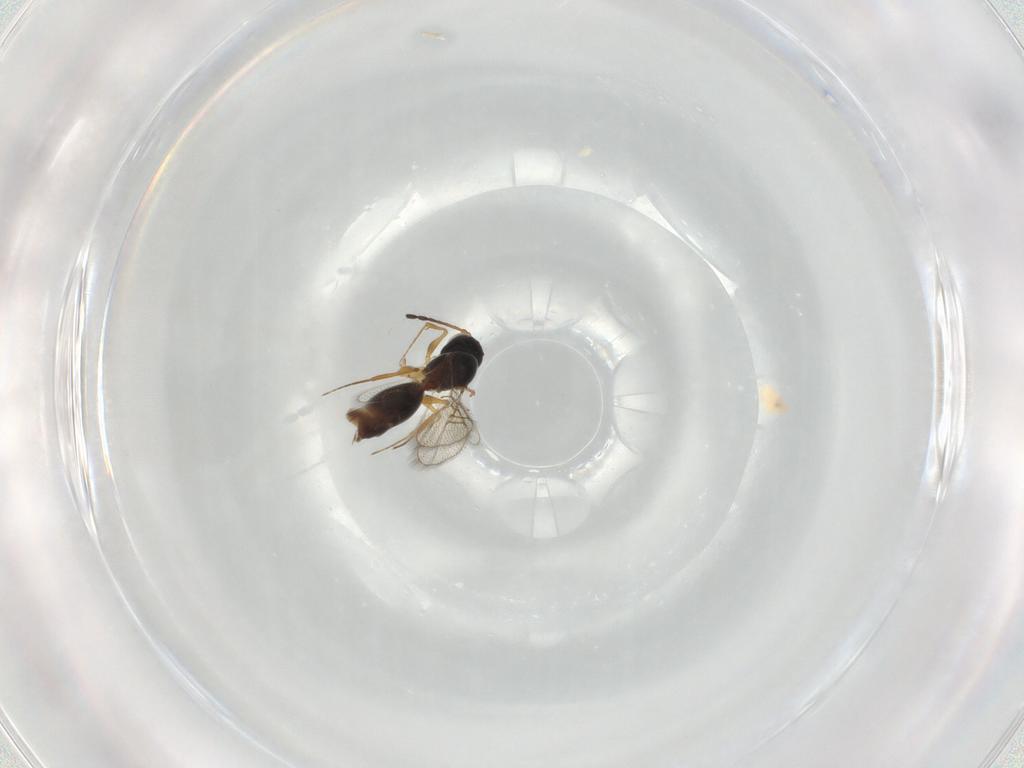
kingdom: Animalia
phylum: Arthropoda
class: Insecta
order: Hymenoptera
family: Figitidae
